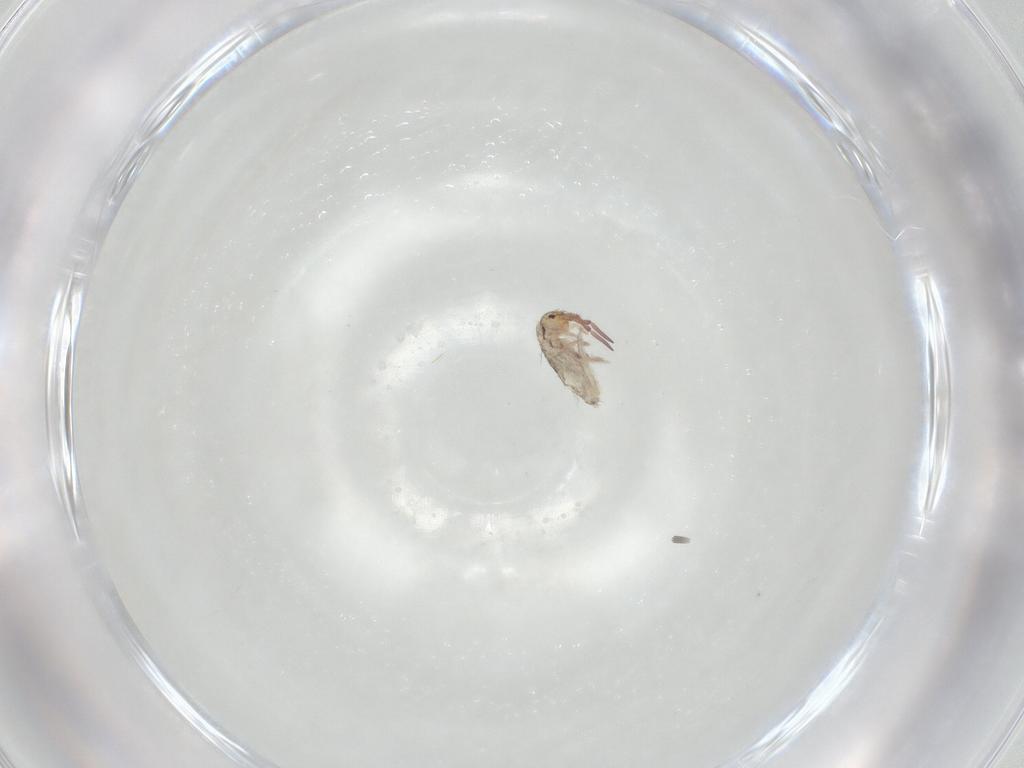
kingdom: Animalia
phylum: Arthropoda
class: Collembola
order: Entomobryomorpha
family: Entomobryidae
